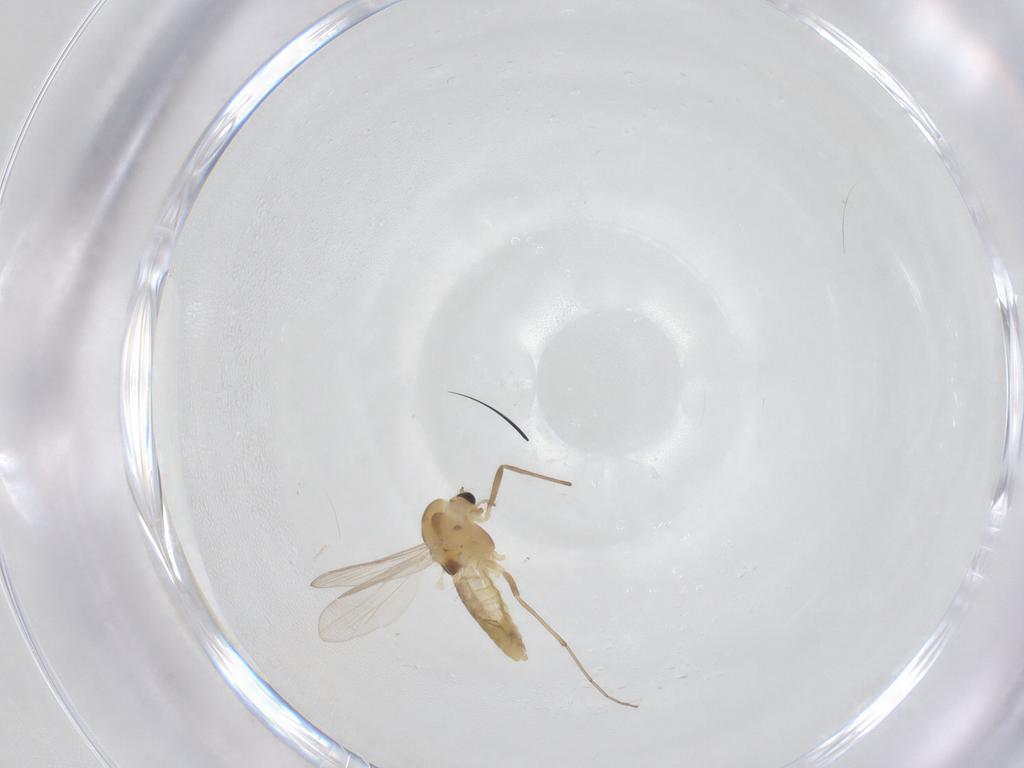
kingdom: Animalia
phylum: Arthropoda
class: Insecta
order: Diptera
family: Chironomidae
